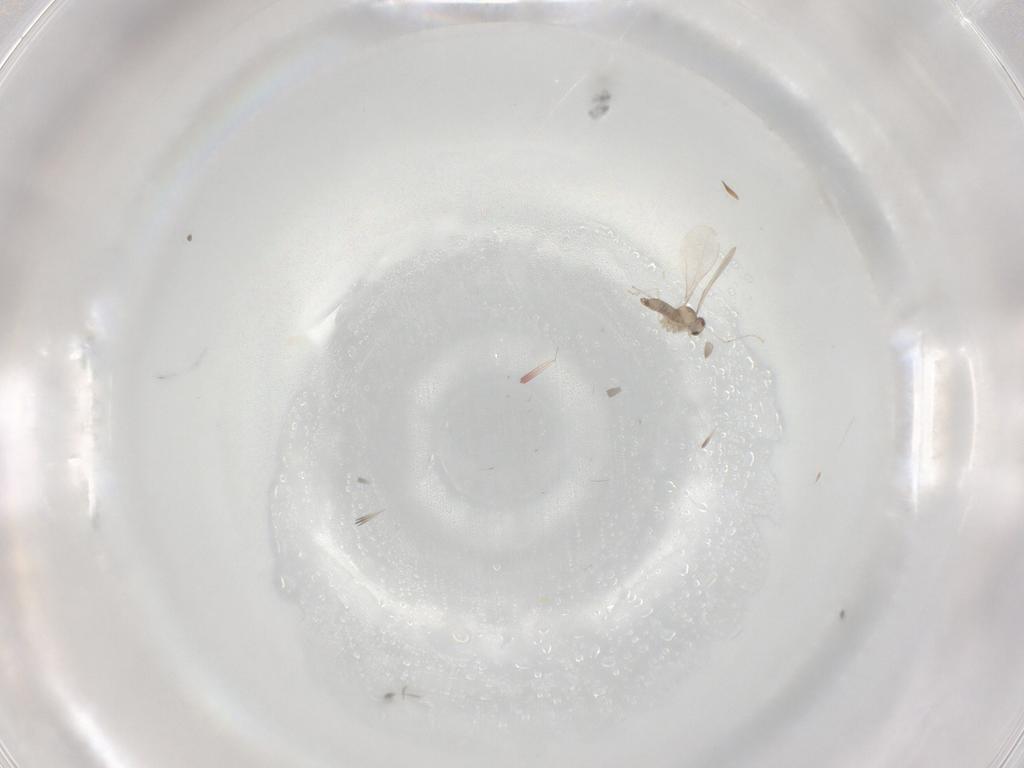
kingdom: Animalia
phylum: Arthropoda
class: Insecta
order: Diptera
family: Cecidomyiidae
